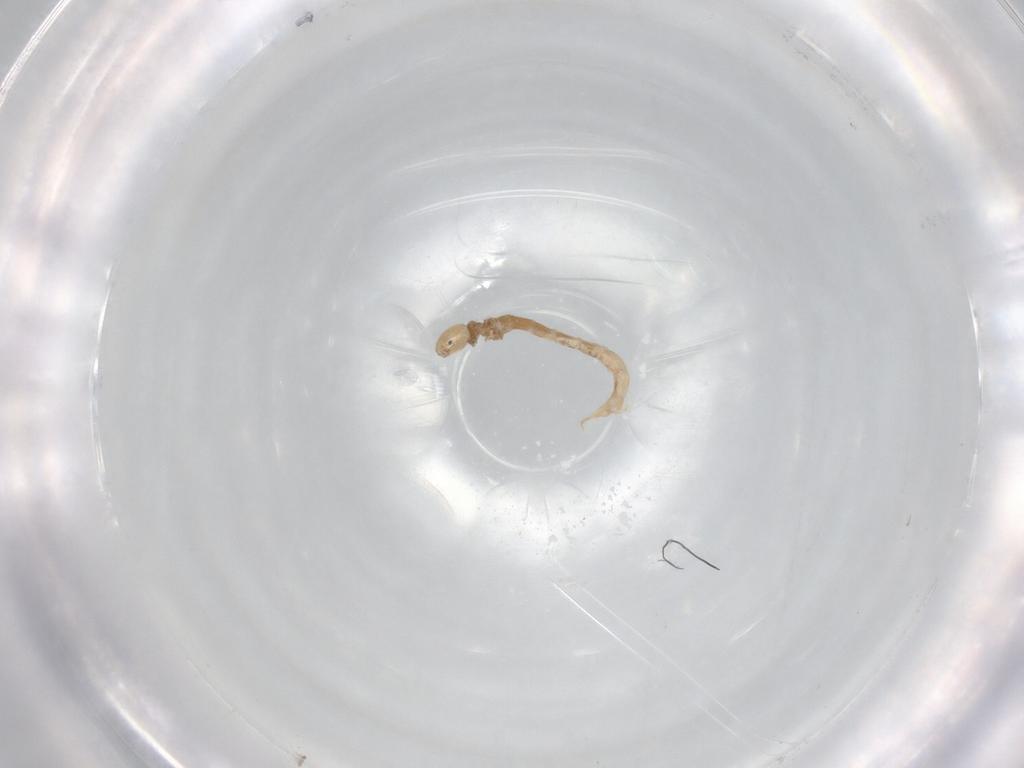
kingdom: Animalia
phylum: Arthropoda
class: Insecta
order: Diptera
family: Chironomidae
